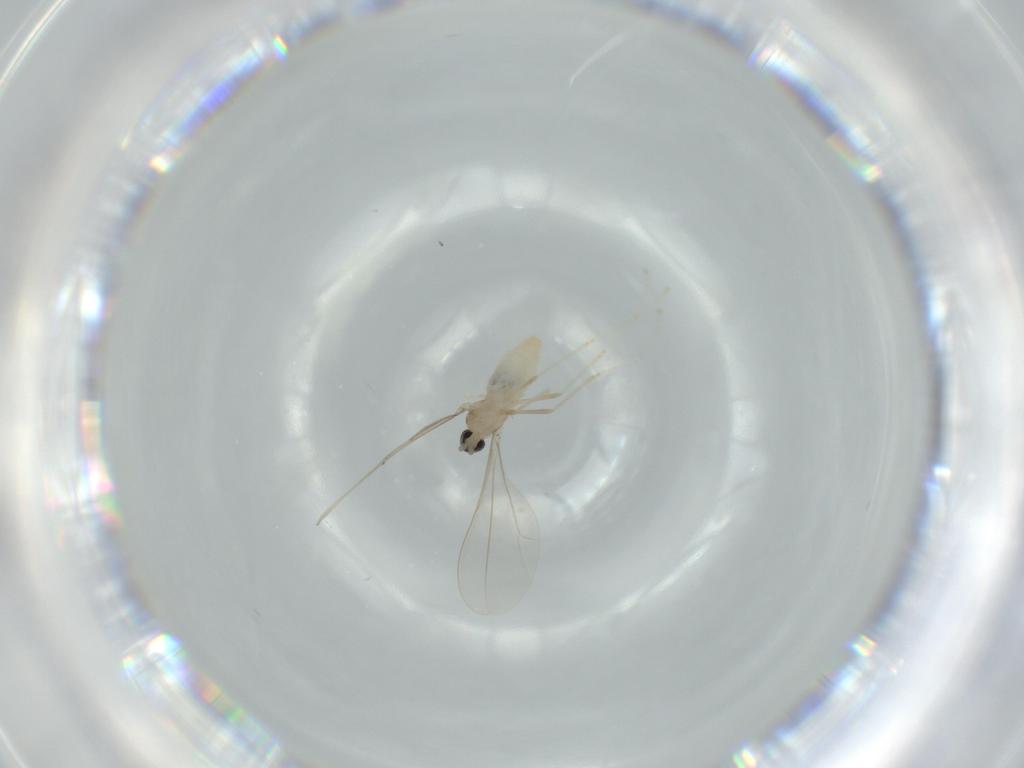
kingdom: Animalia
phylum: Arthropoda
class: Insecta
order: Diptera
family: Cecidomyiidae
